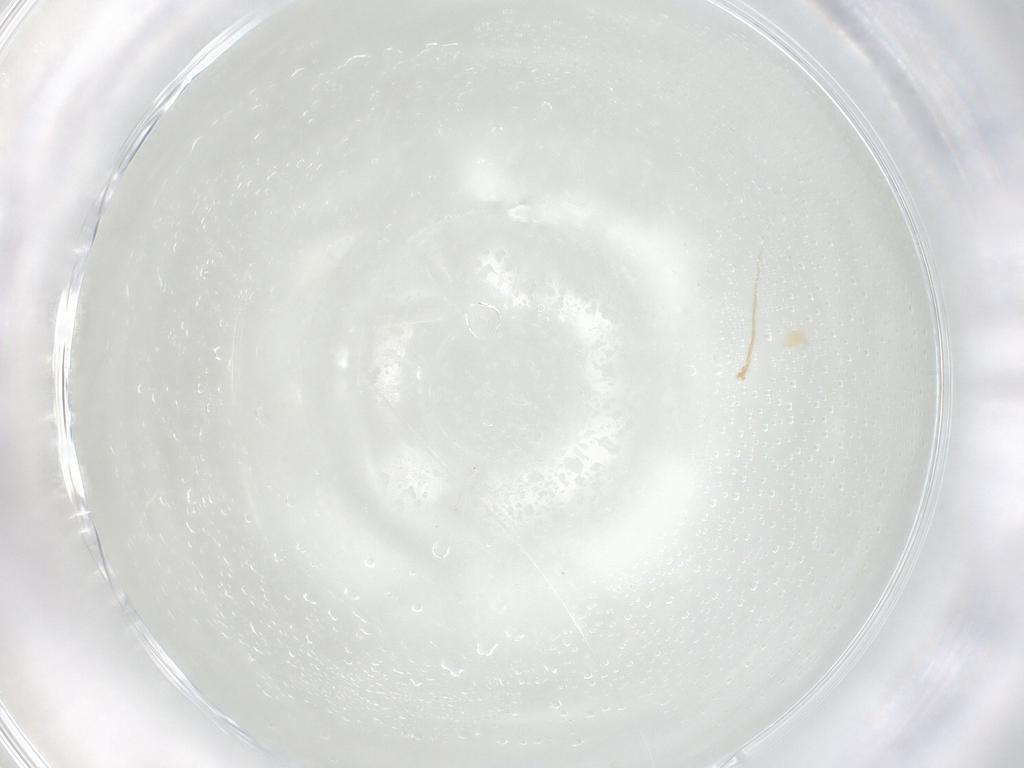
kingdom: Animalia
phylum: Arthropoda
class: Arachnida
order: Trombidiformes
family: Eupodidae
